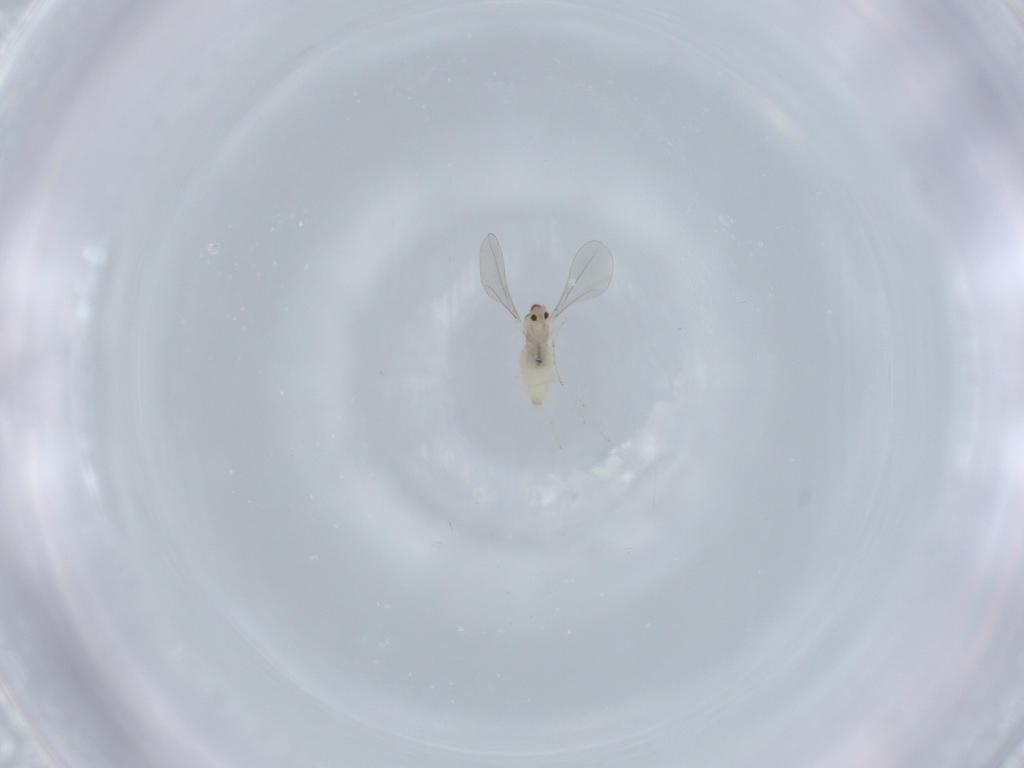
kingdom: Animalia
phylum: Arthropoda
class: Insecta
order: Diptera
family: Cecidomyiidae
